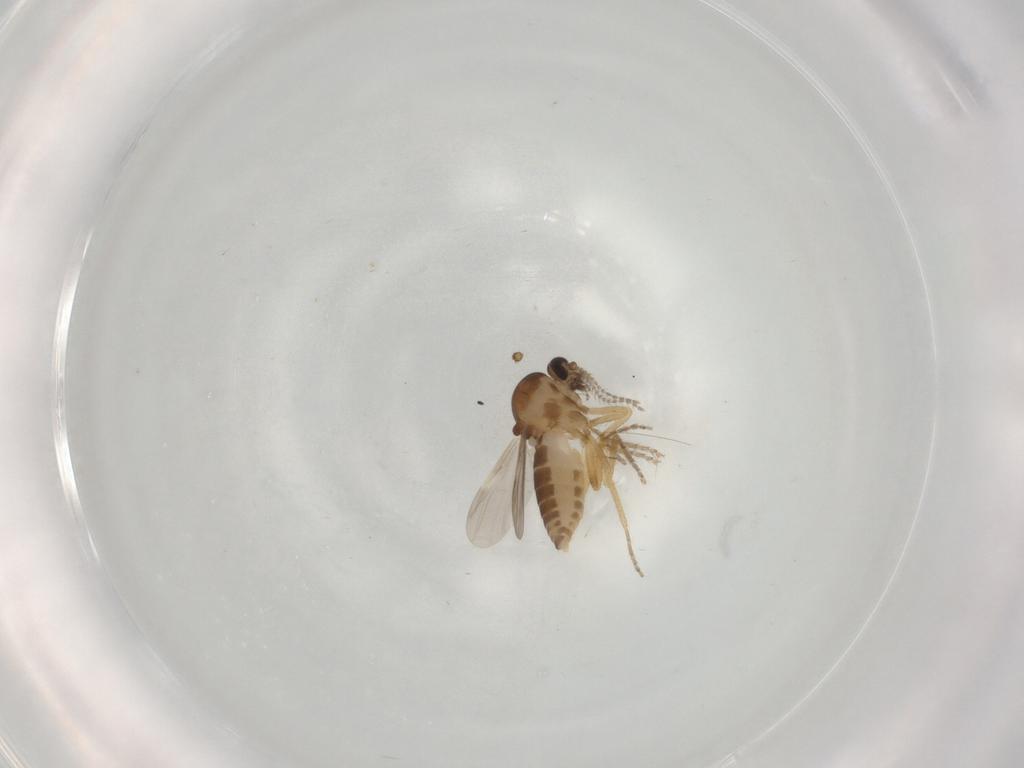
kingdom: Animalia
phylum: Arthropoda
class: Insecta
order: Diptera
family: Ceratopogonidae
